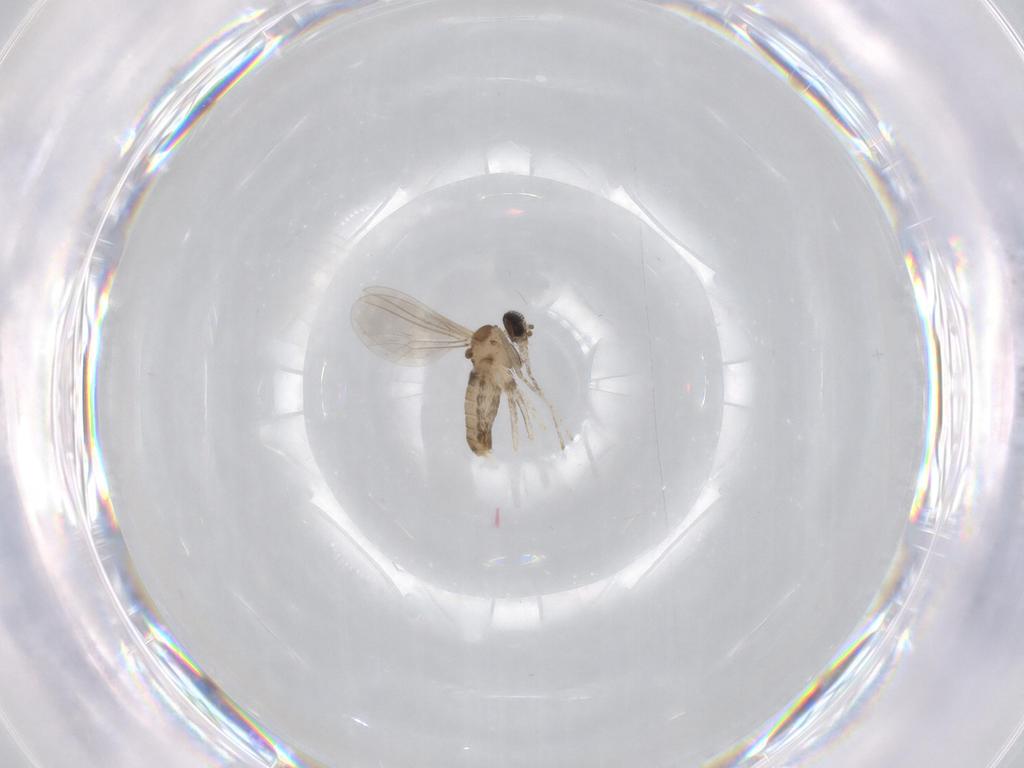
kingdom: Animalia
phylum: Arthropoda
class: Insecta
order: Diptera
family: Cecidomyiidae
